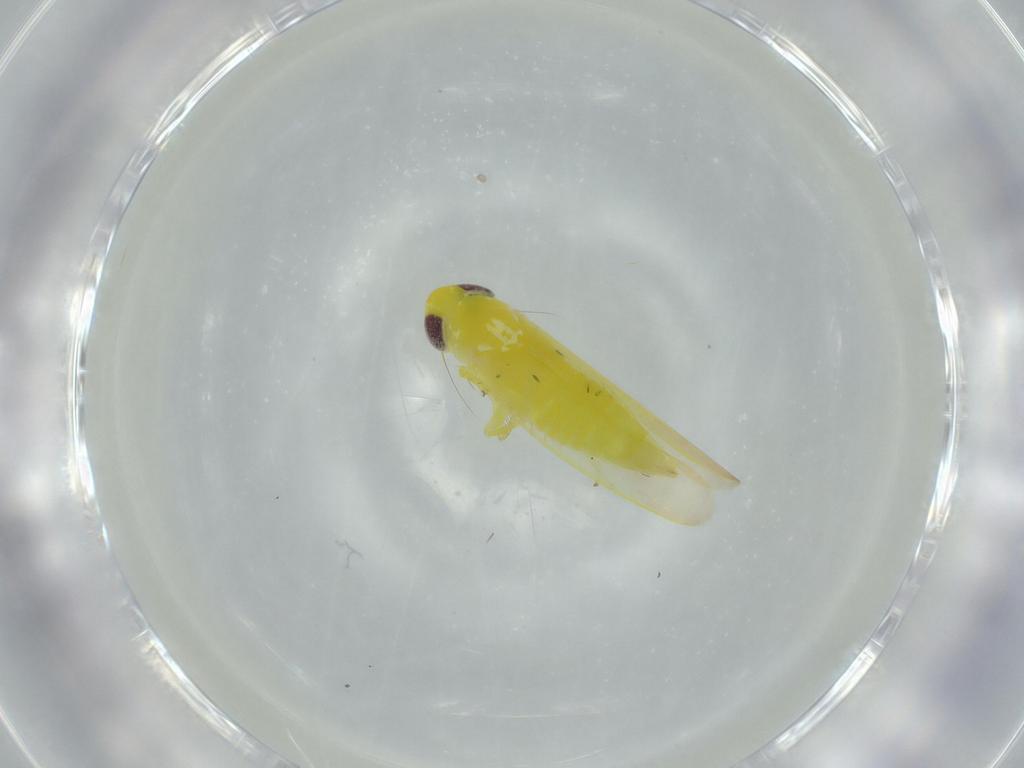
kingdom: Animalia
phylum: Arthropoda
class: Insecta
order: Hemiptera
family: Cicadellidae
